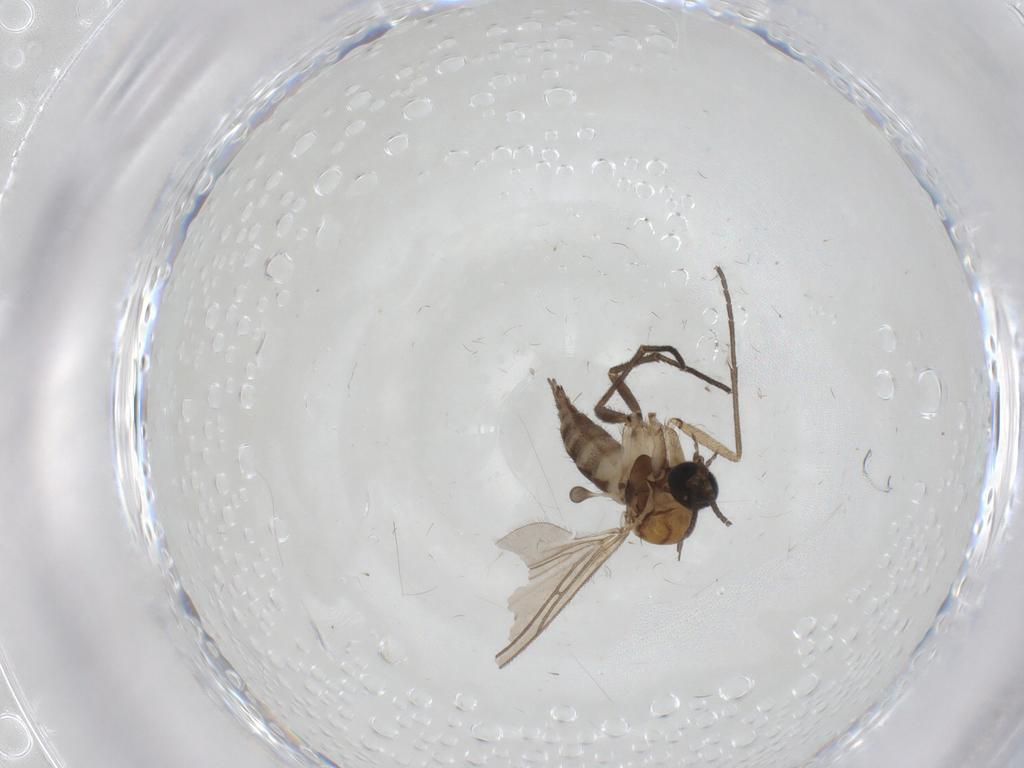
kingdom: Animalia
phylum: Arthropoda
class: Insecta
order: Diptera
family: Sciaridae
